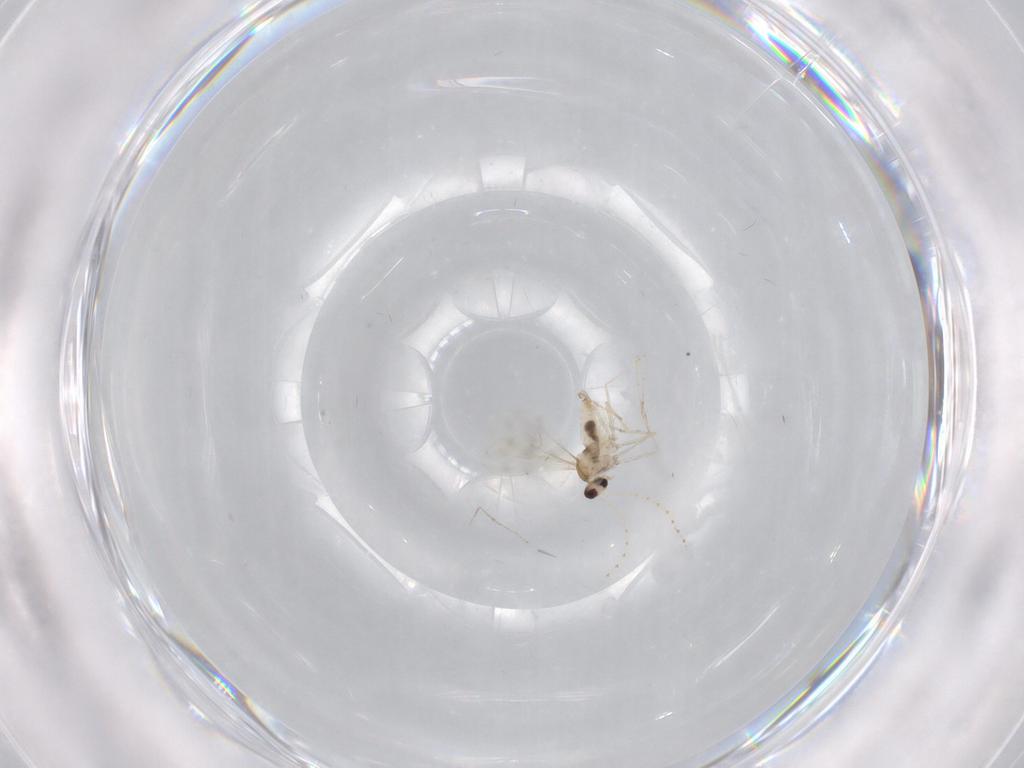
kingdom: Animalia
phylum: Arthropoda
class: Insecta
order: Diptera
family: Cecidomyiidae
